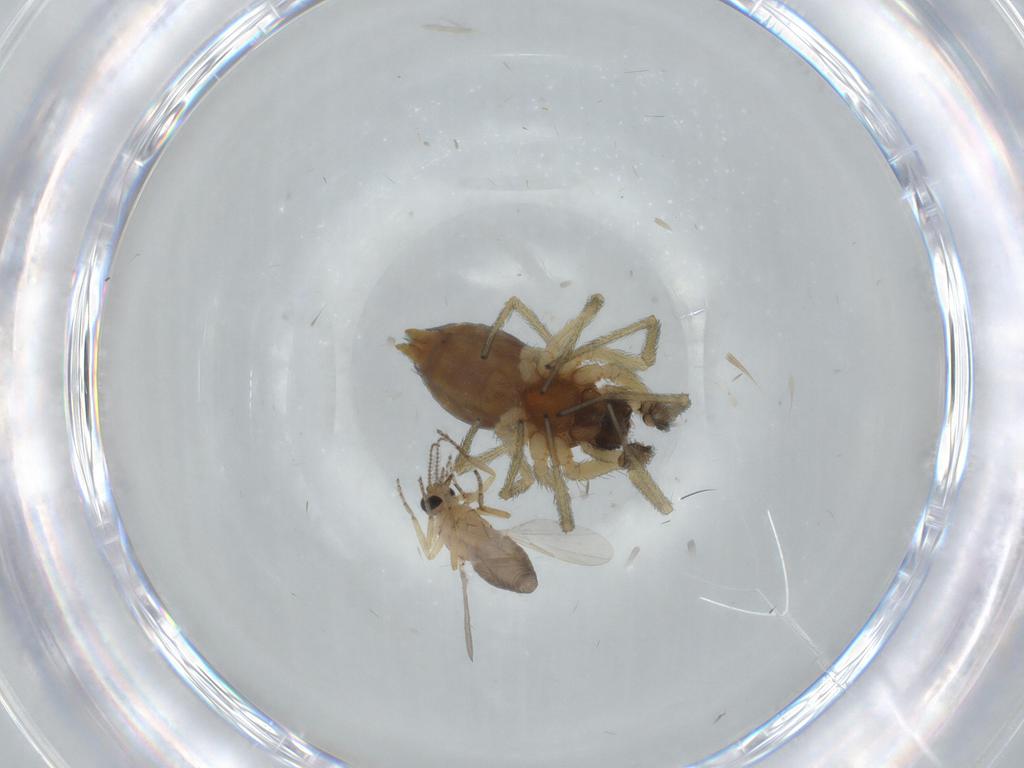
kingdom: Animalia
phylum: Arthropoda
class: Arachnida
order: Araneae
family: Dictynidae
